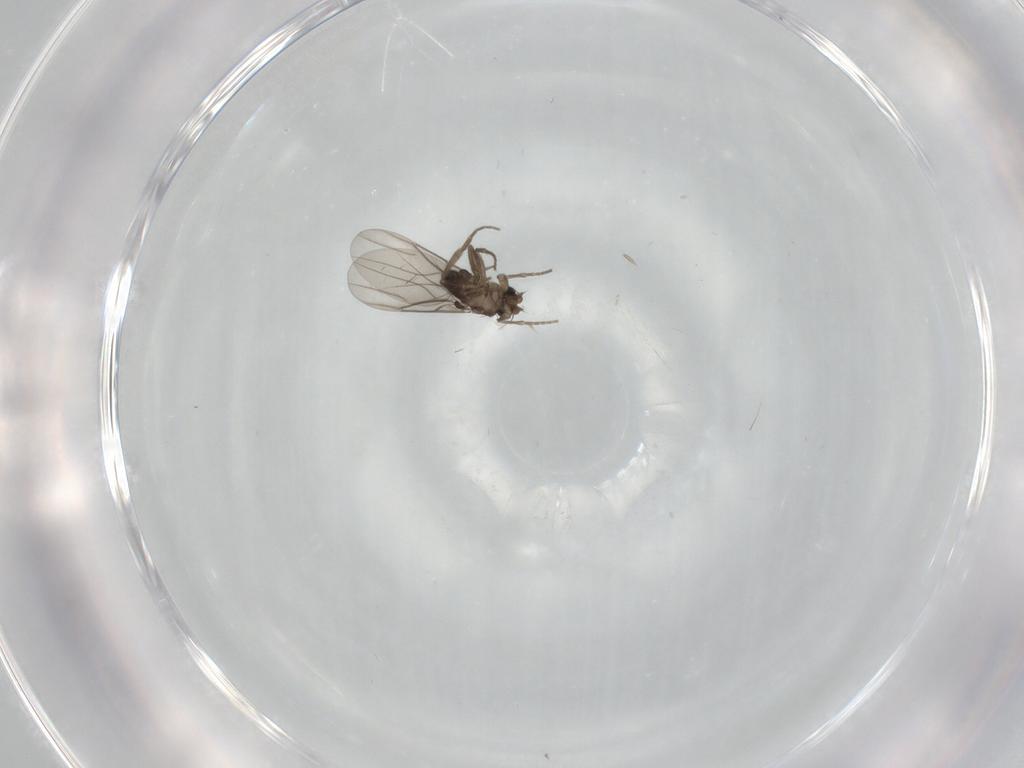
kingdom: Animalia
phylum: Arthropoda
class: Insecta
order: Diptera
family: Phoridae
